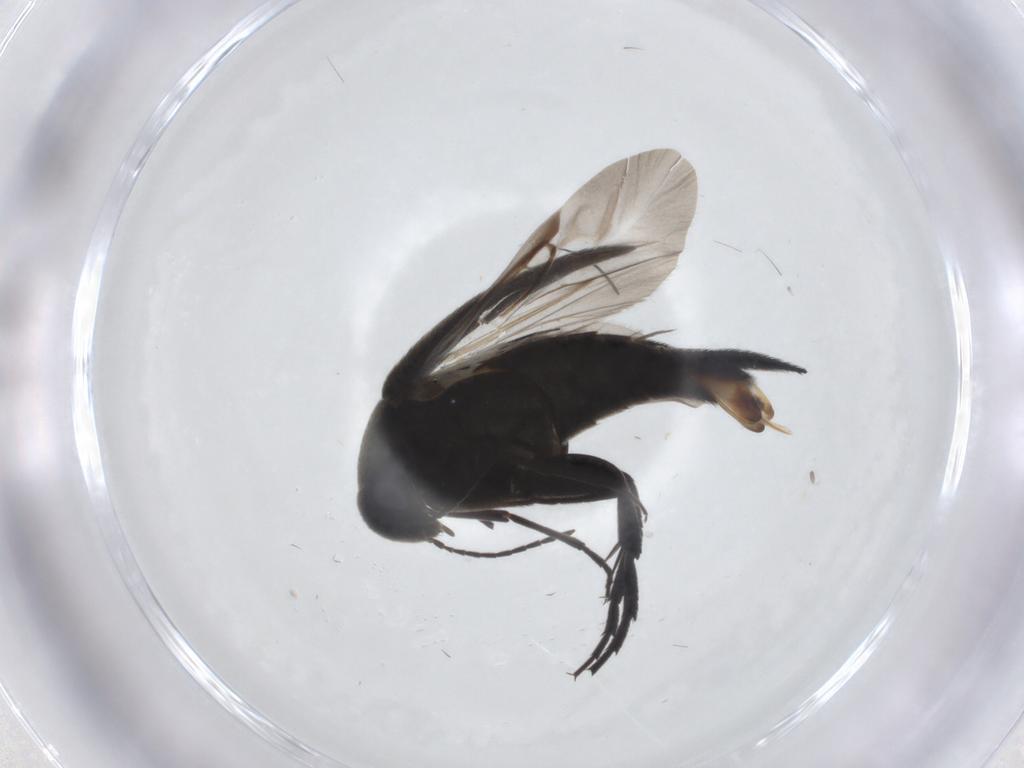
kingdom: Animalia
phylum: Arthropoda
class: Insecta
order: Coleoptera
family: Mordellidae
